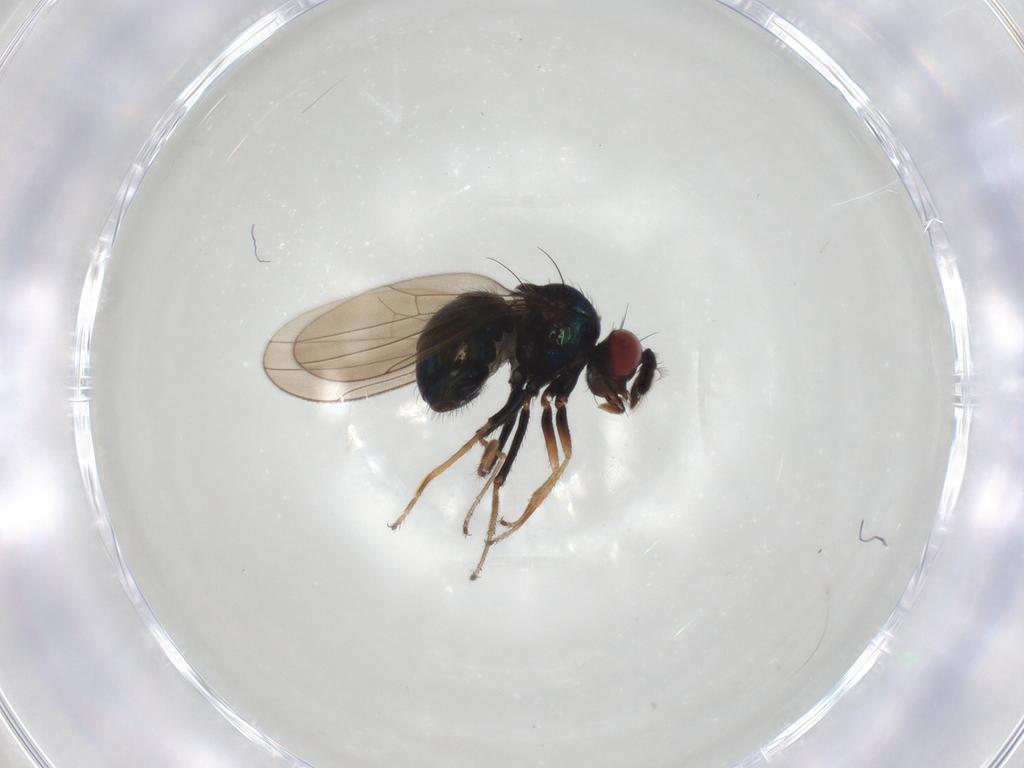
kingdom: Animalia
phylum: Arthropoda
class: Insecta
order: Diptera
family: Ephydridae
